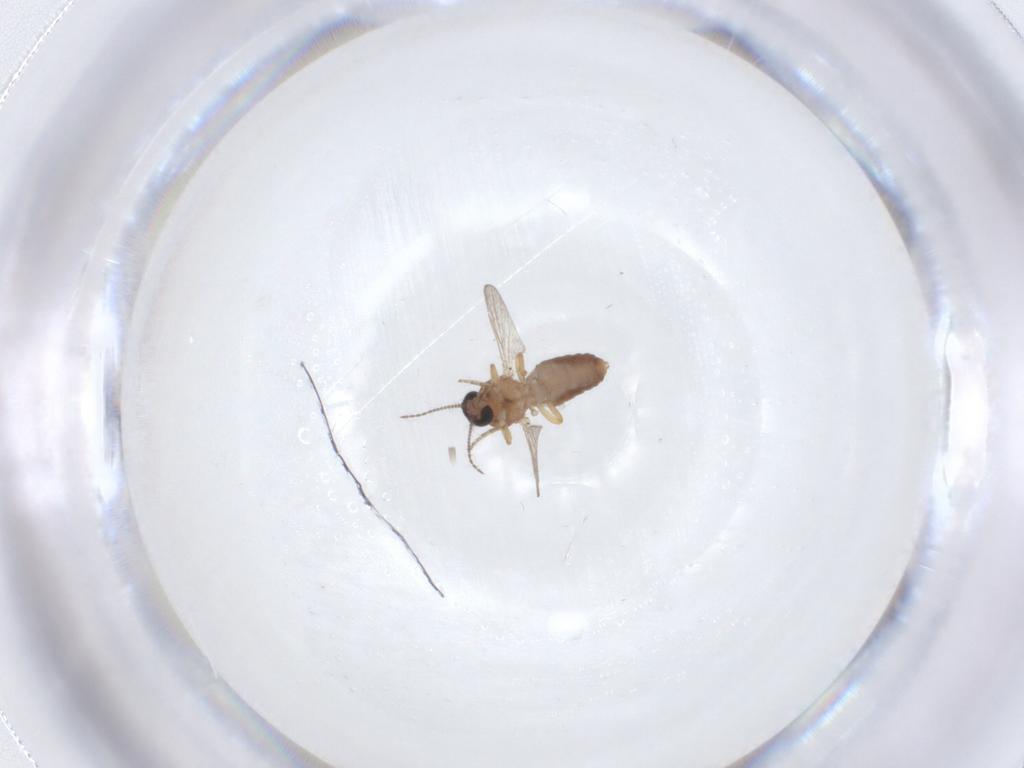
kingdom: Animalia
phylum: Arthropoda
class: Insecta
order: Diptera
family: Ceratopogonidae
